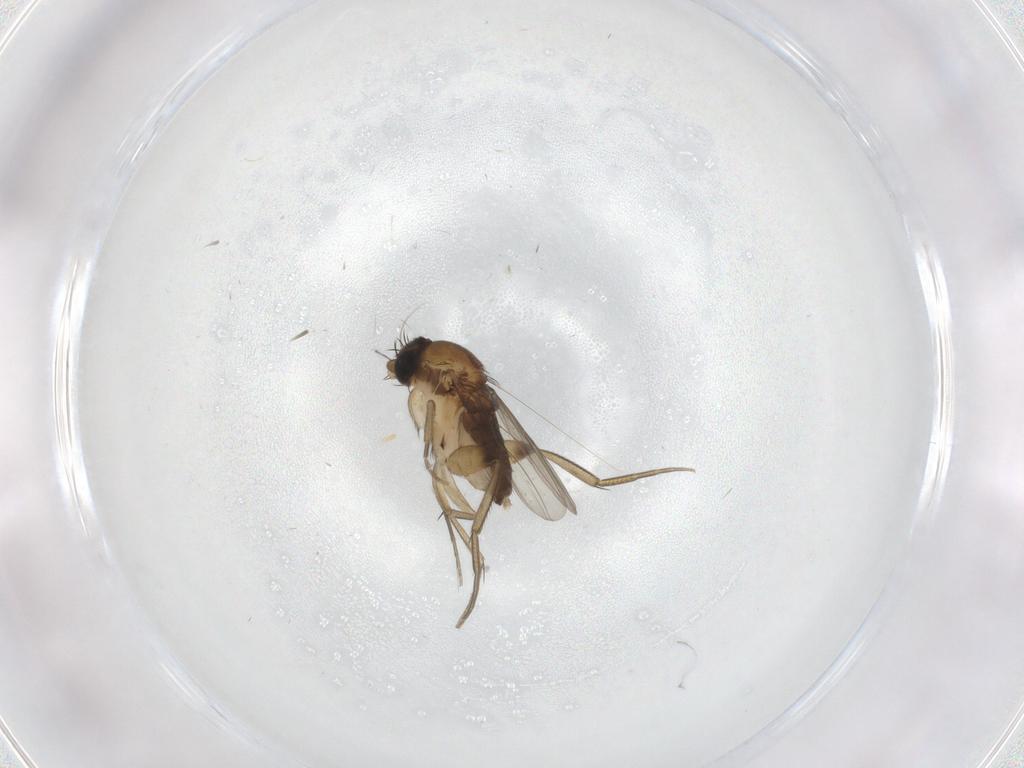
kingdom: Animalia
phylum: Arthropoda
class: Insecta
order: Diptera
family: Phoridae
